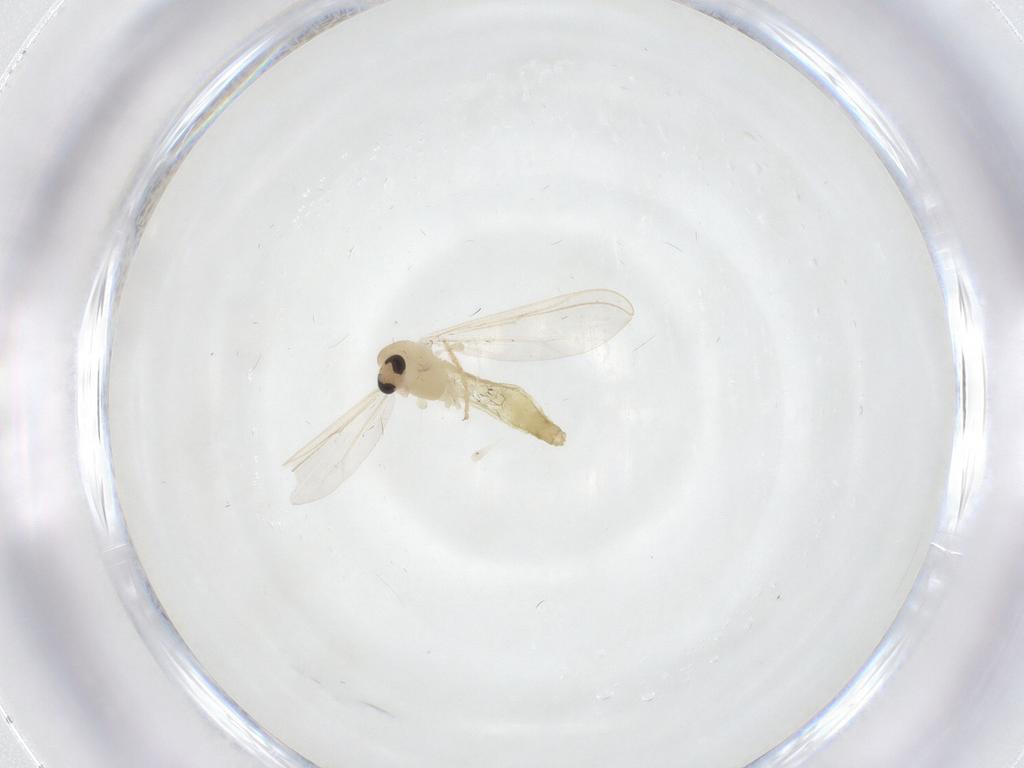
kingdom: Animalia
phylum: Arthropoda
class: Insecta
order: Diptera
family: Chironomidae
